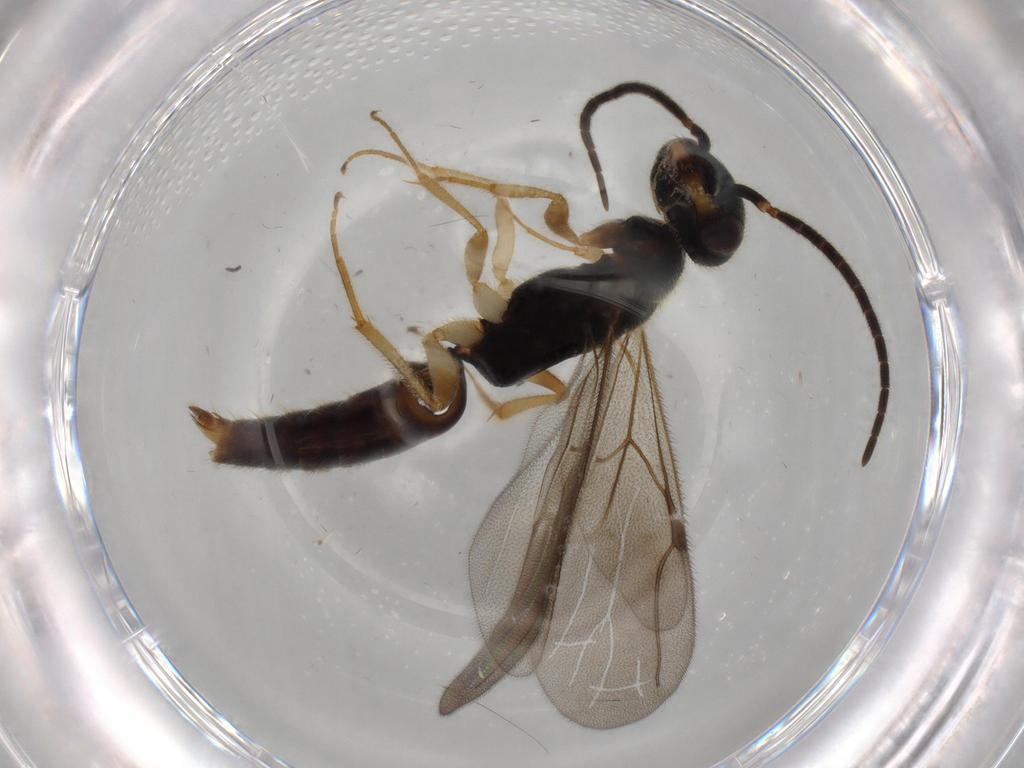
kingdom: Animalia
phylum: Arthropoda
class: Insecta
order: Hymenoptera
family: Bethylidae
